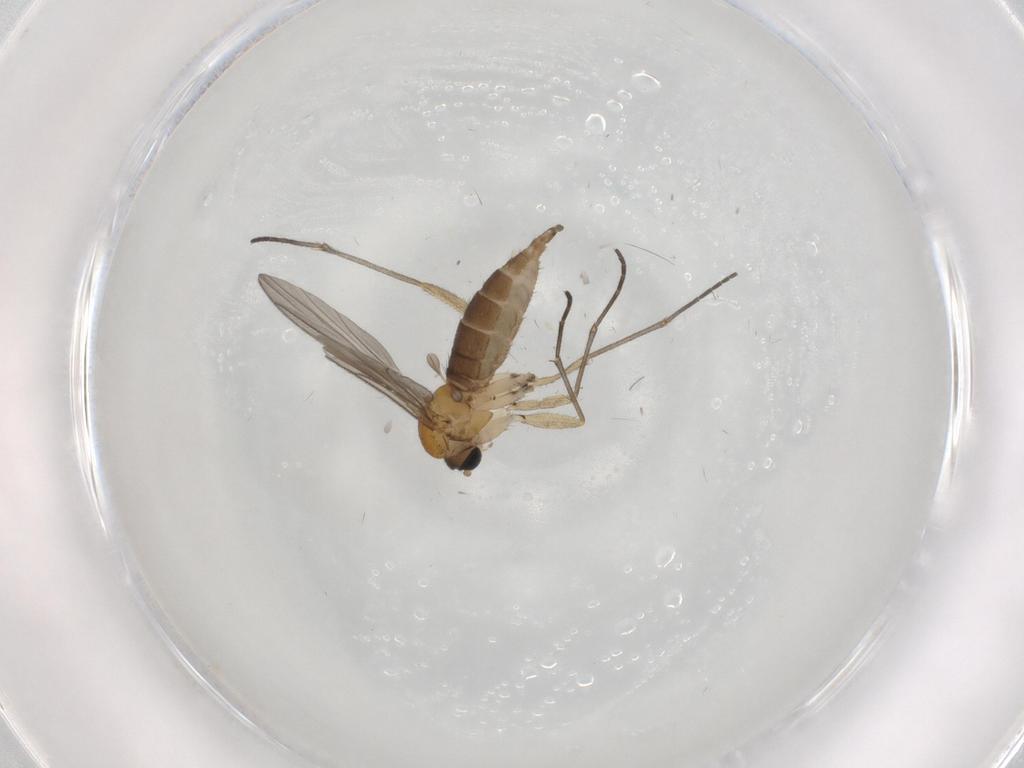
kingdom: Animalia
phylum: Arthropoda
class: Insecta
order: Diptera
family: Sciaridae
